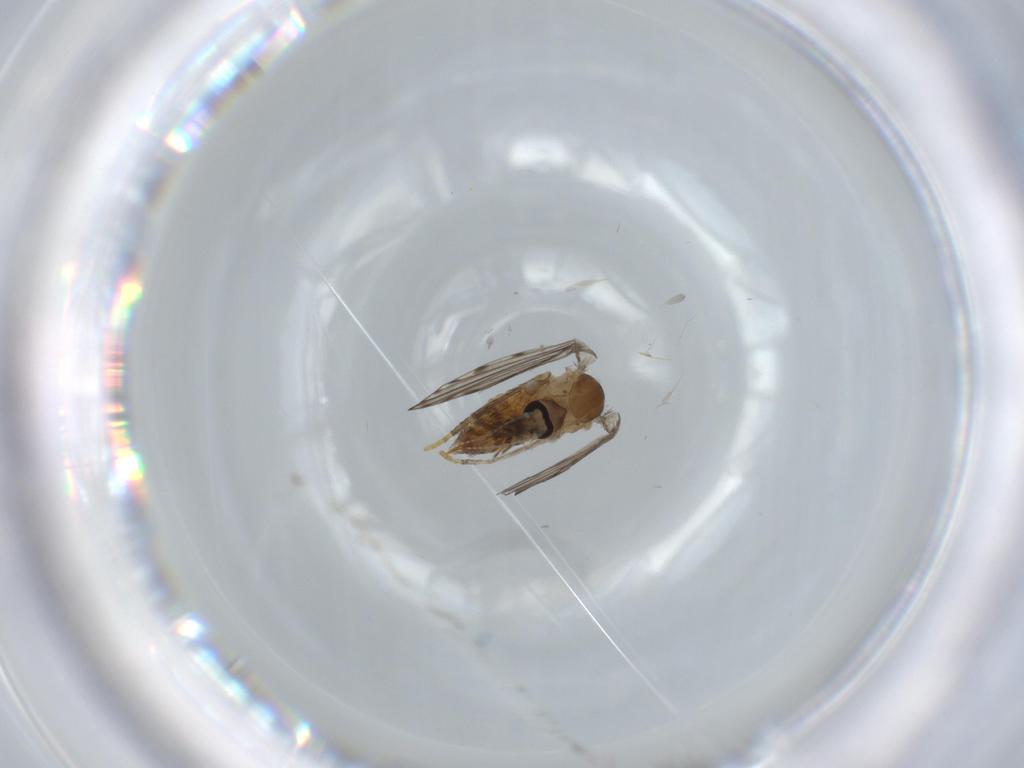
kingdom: Animalia
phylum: Arthropoda
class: Insecta
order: Diptera
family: Psychodidae
